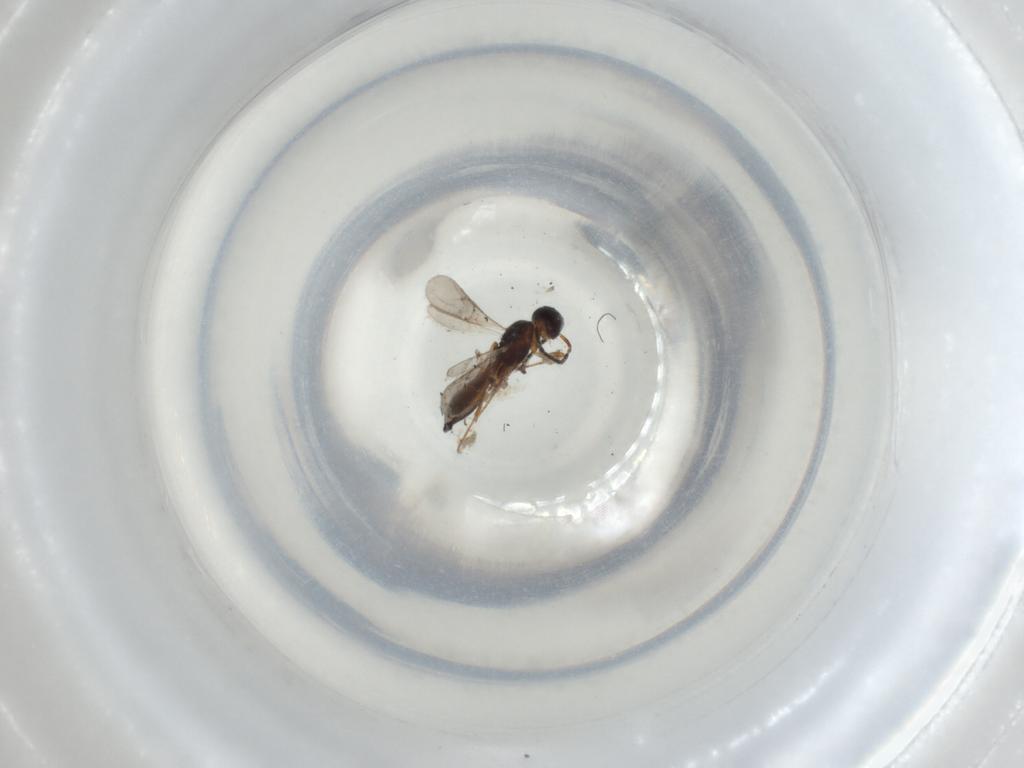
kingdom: Animalia
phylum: Arthropoda
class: Insecta
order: Hymenoptera
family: Scelionidae
